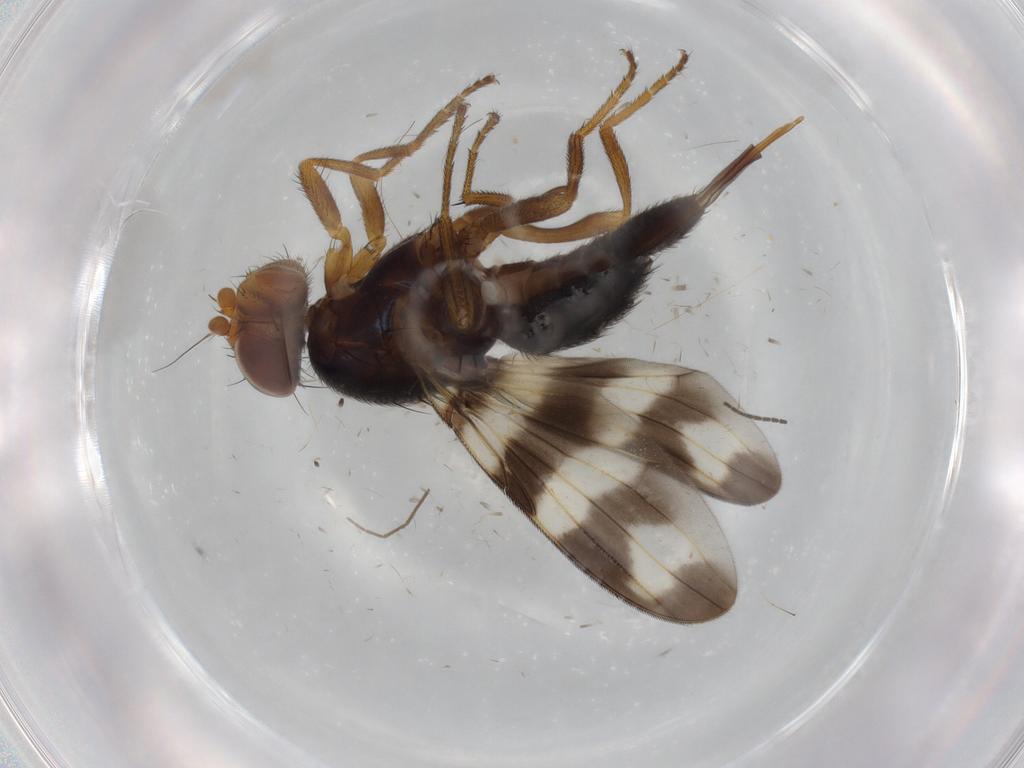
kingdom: Animalia
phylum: Arthropoda
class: Insecta
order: Diptera
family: Ulidiidae
